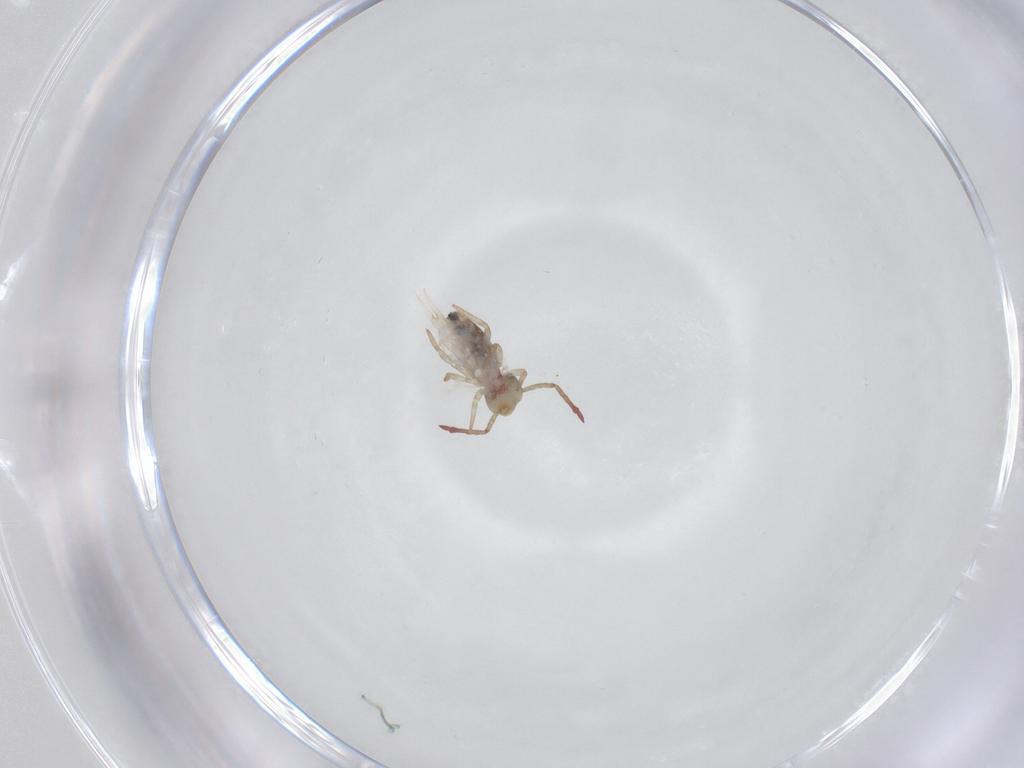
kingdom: Animalia
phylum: Arthropoda
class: Collembola
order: Symphypleona
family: Dicyrtomidae
